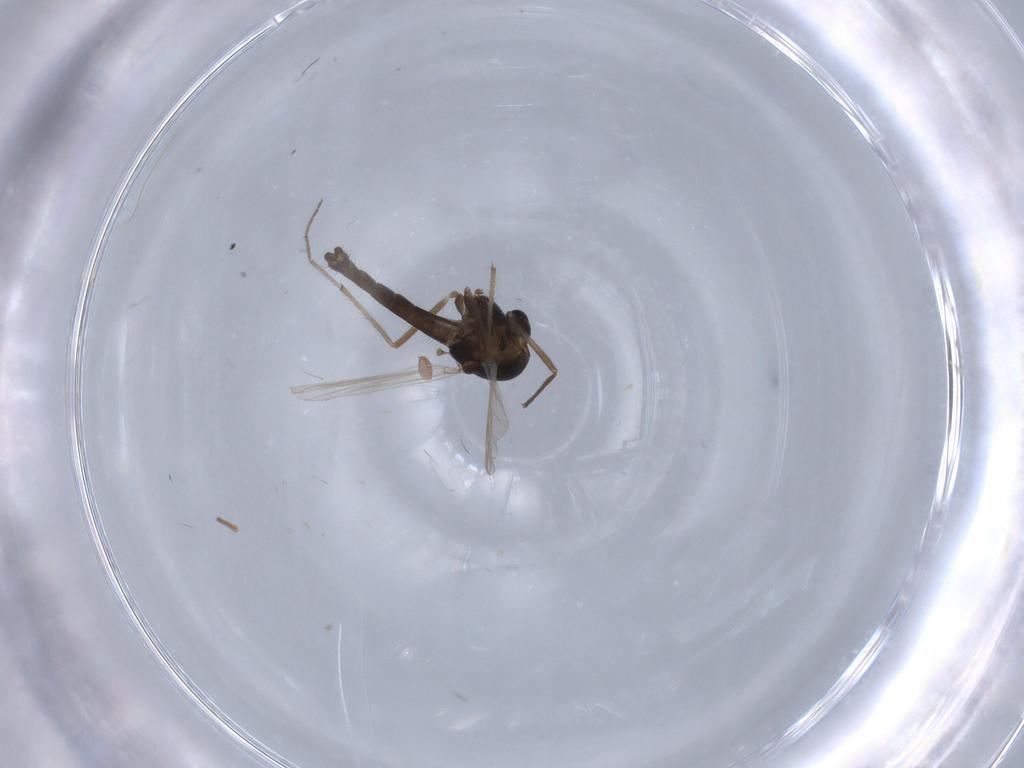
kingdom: Animalia
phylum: Arthropoda
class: Insecta
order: Diptera
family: Chironomidae
